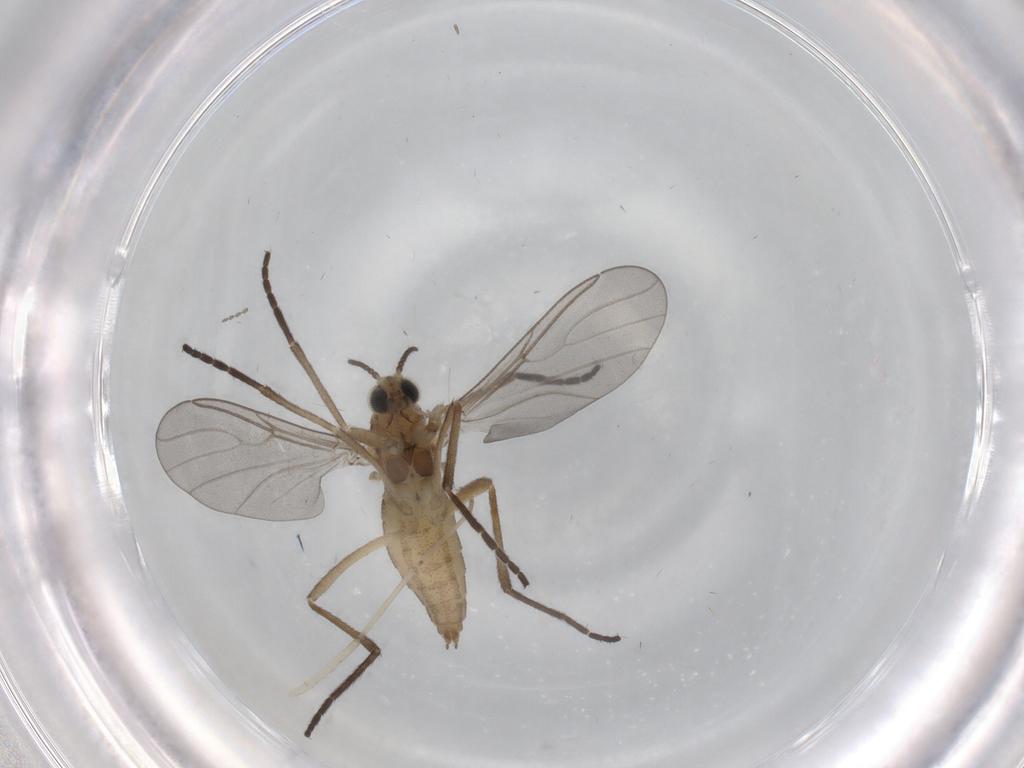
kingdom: Animalia
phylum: Arthropoda
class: Insecta
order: Diptera
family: Cecidomyiidae
